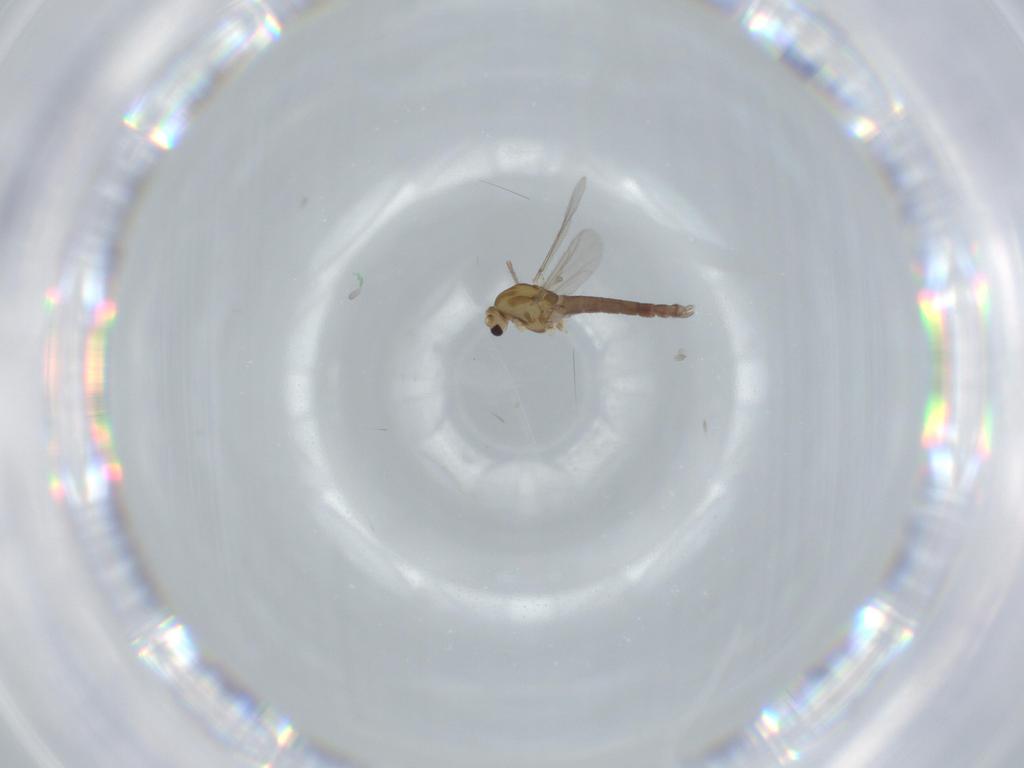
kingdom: Animalia
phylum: Arthropoda
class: Insecta
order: Diptera
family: Chironomidae
